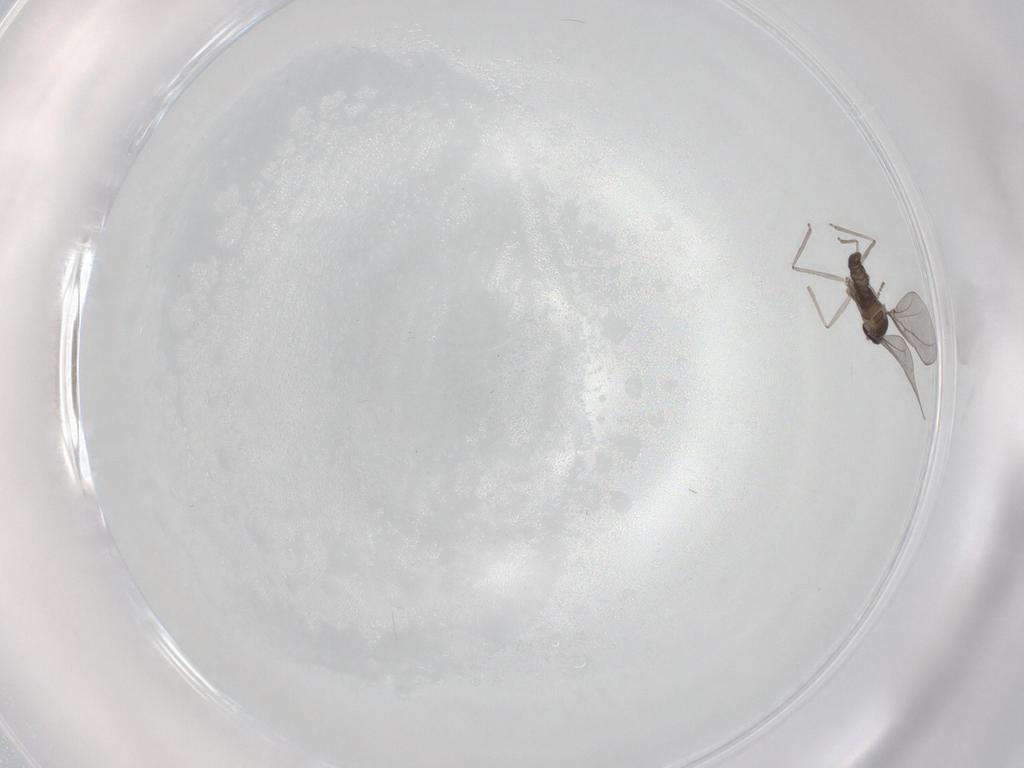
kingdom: Animalia
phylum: Arthropoda
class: Insecta
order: Diptera
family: Cecidomyiidae
